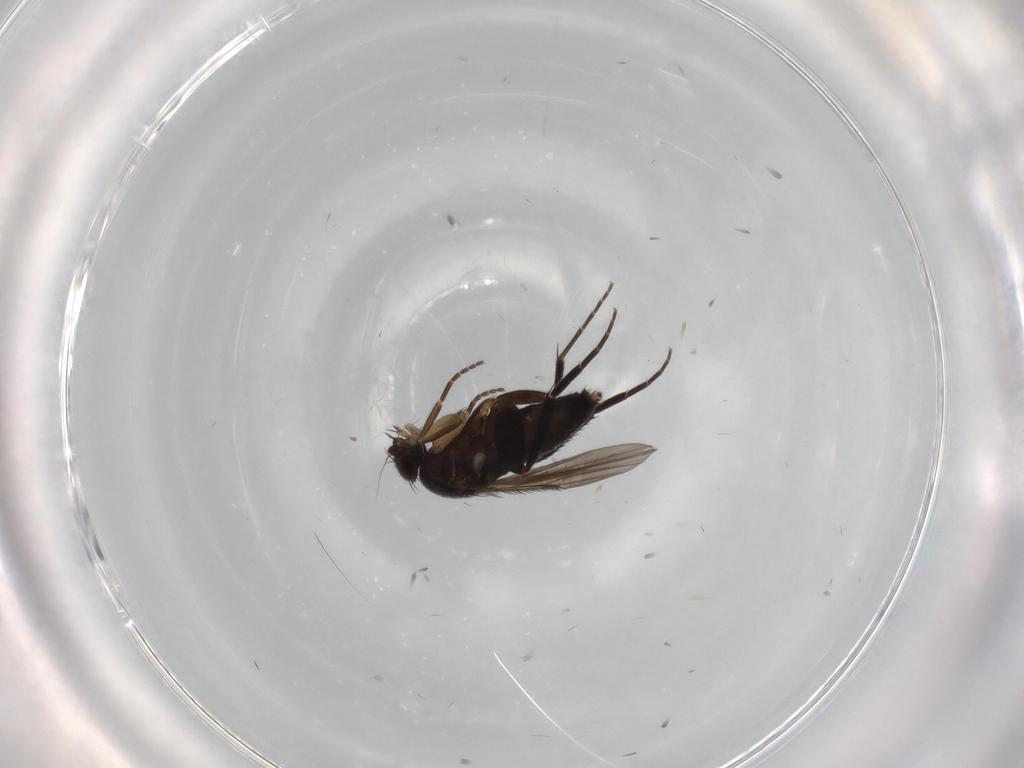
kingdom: Animalia
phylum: Arthropoda
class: Insecta
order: Diptera
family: Phoridae
